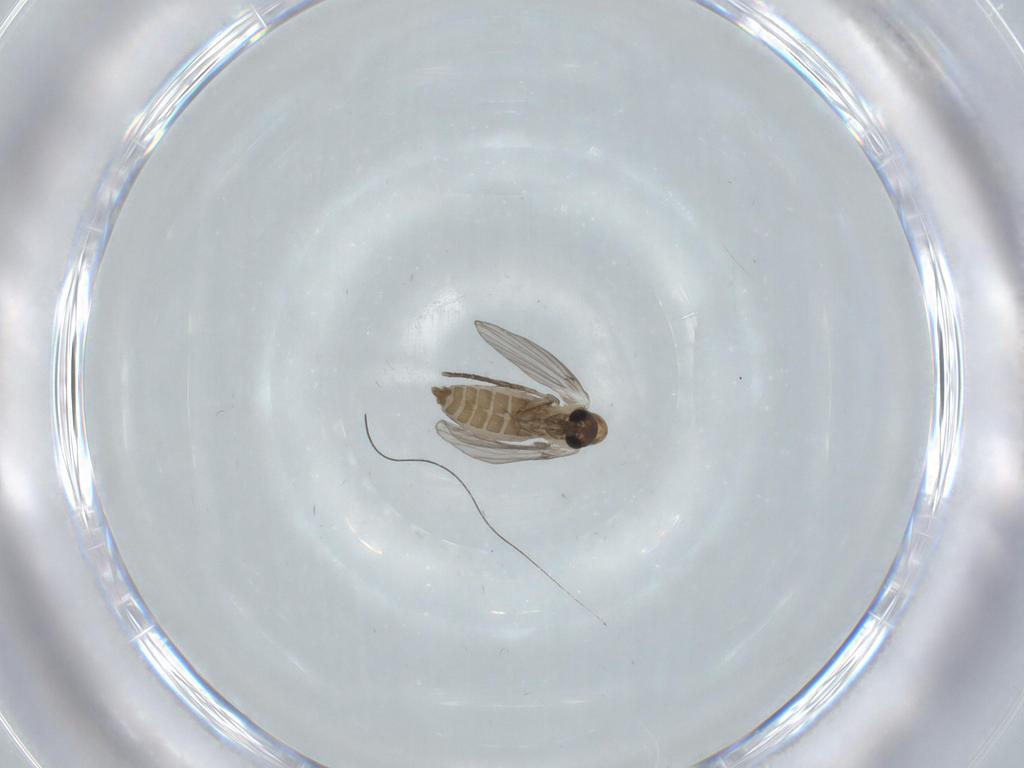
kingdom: Animalia
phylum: Arthropoda
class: Insecta
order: Diptera
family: Psychodidae
